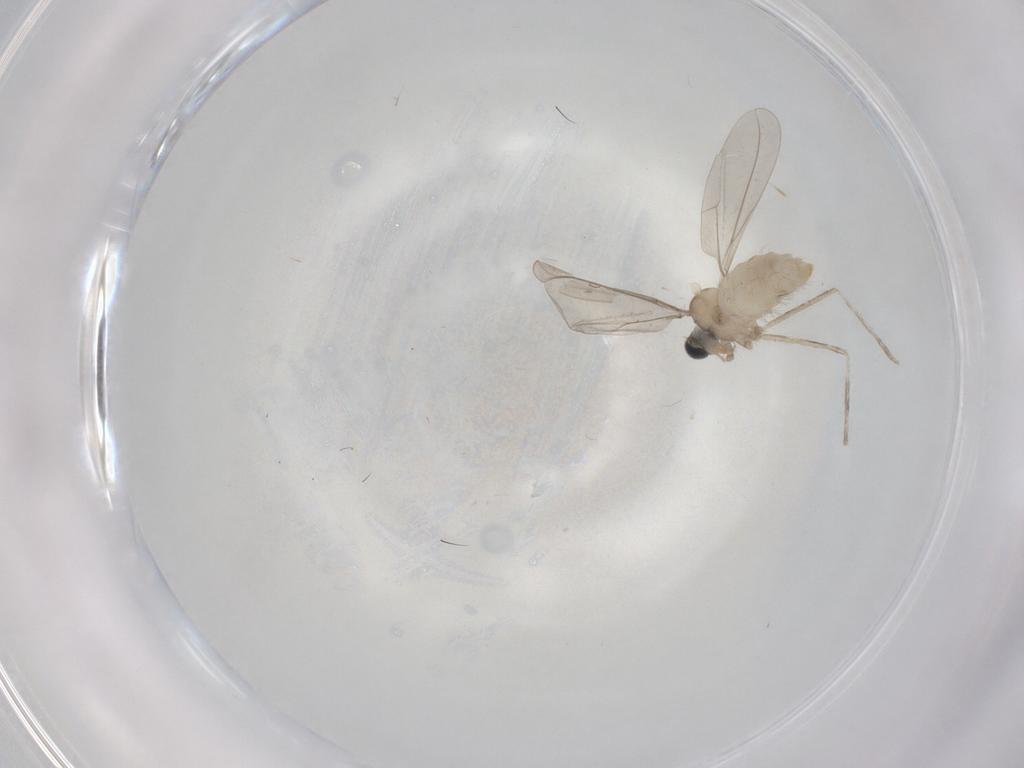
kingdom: Animalia
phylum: Arthropoda
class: Insecta
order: Diptera
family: Cecidomyiidae
